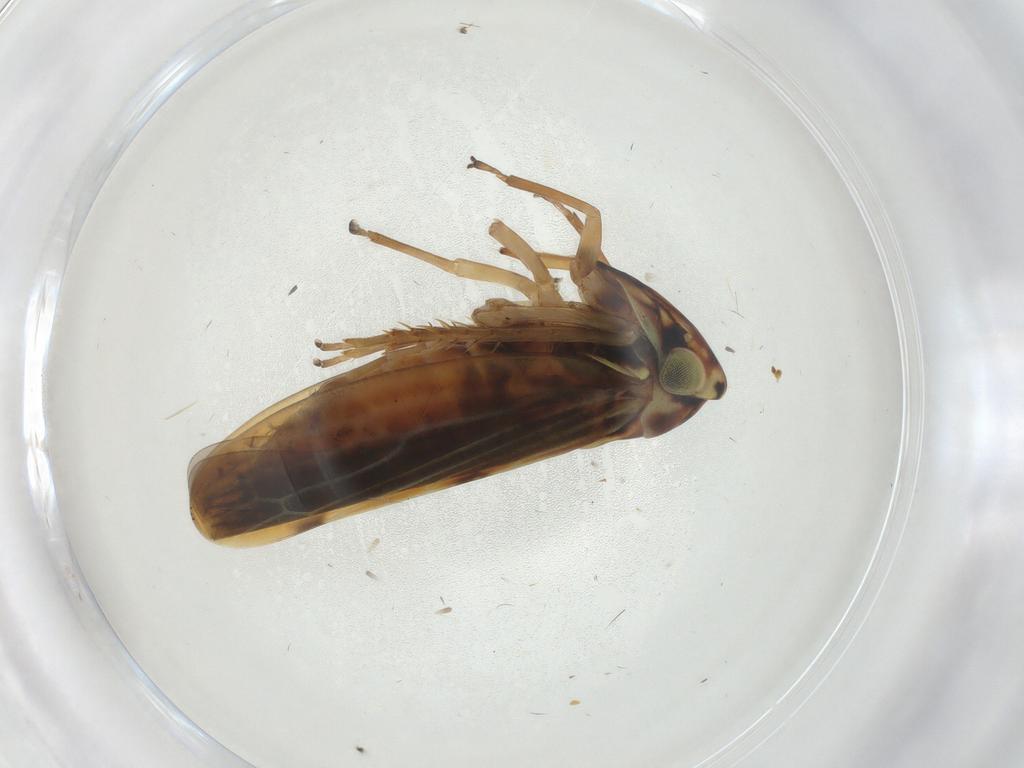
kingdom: Animalia
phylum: Arthropoda
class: Insecta
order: Hemiptera
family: Cicadellidae
